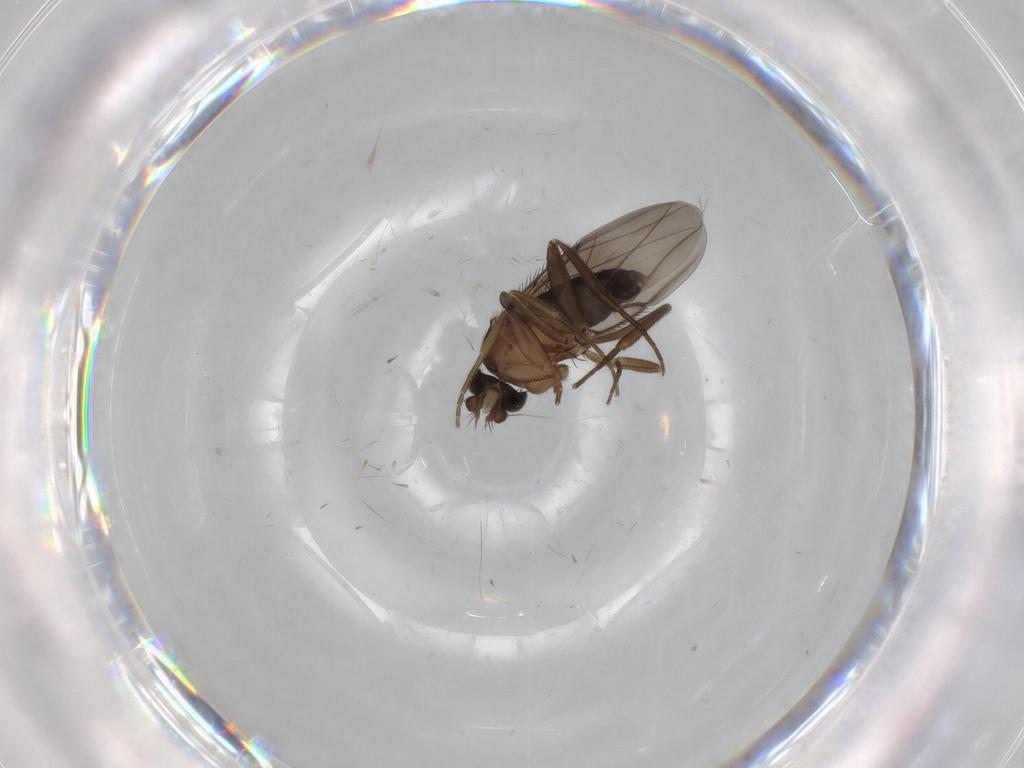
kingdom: Animalia
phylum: Arthropoda
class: Insecta
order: Diptera
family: Phoridae
